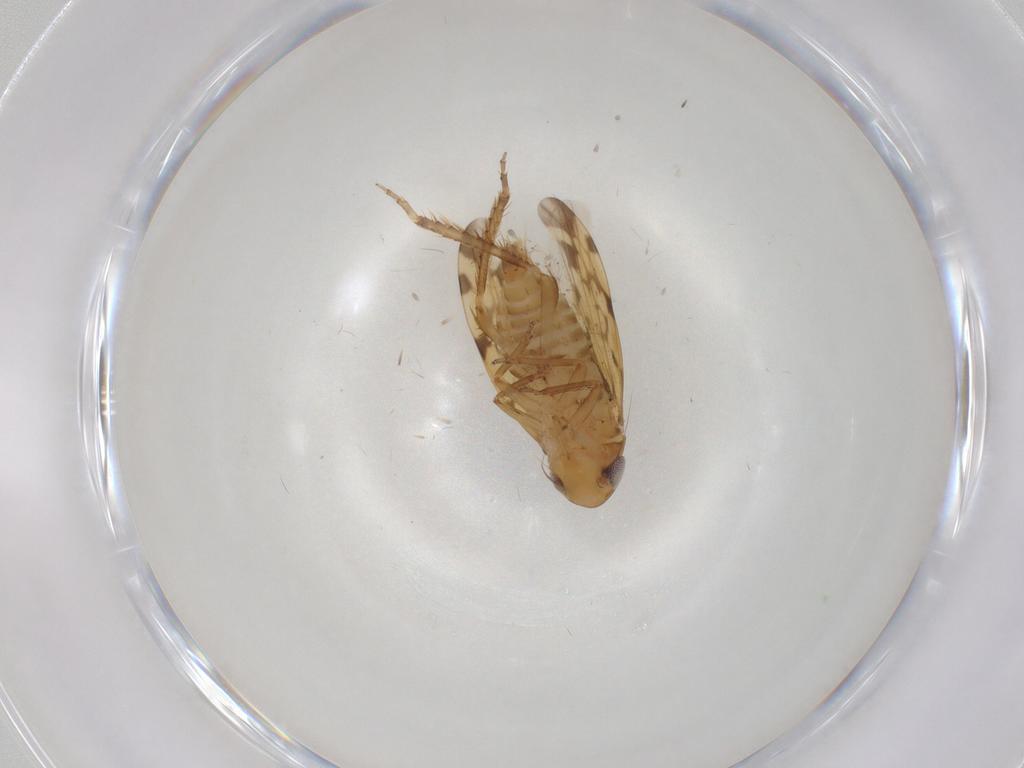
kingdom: Animalia
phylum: Arthropoda
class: Insecta
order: Hemiptera
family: Cicadellidae
